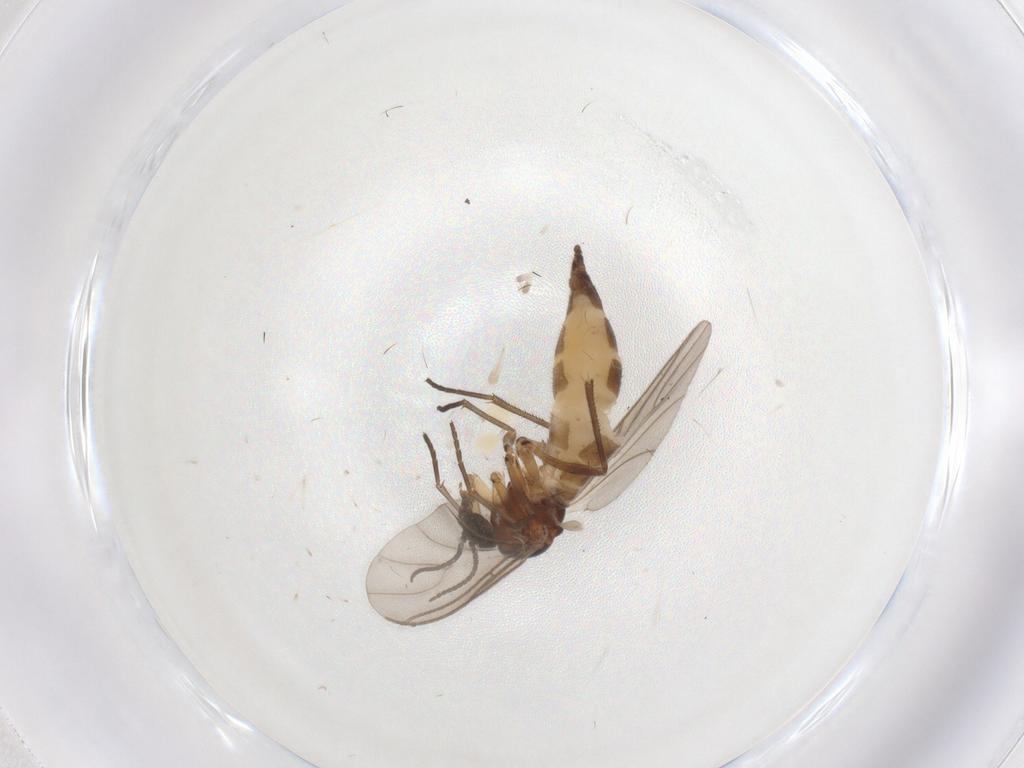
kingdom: Animalia
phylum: Arthropoda
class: Insecta
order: Diptera
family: Sciaridae
